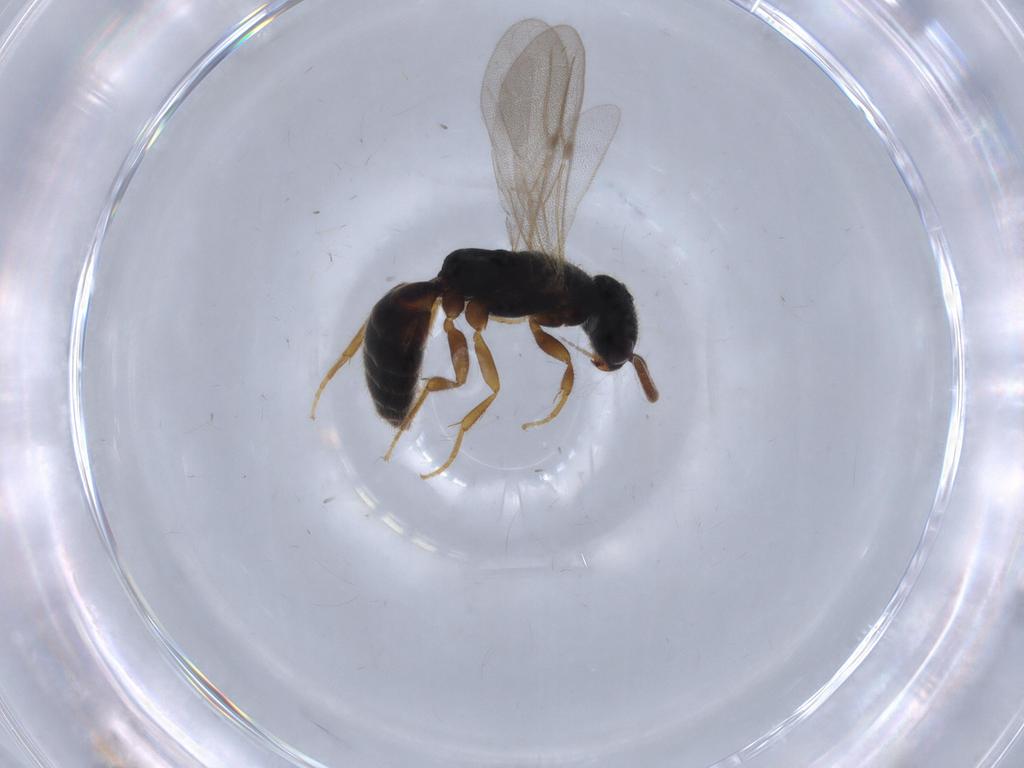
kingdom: Animalia
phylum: Arthropoda
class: Insecta
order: Hymenoptera
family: Bethylidae
